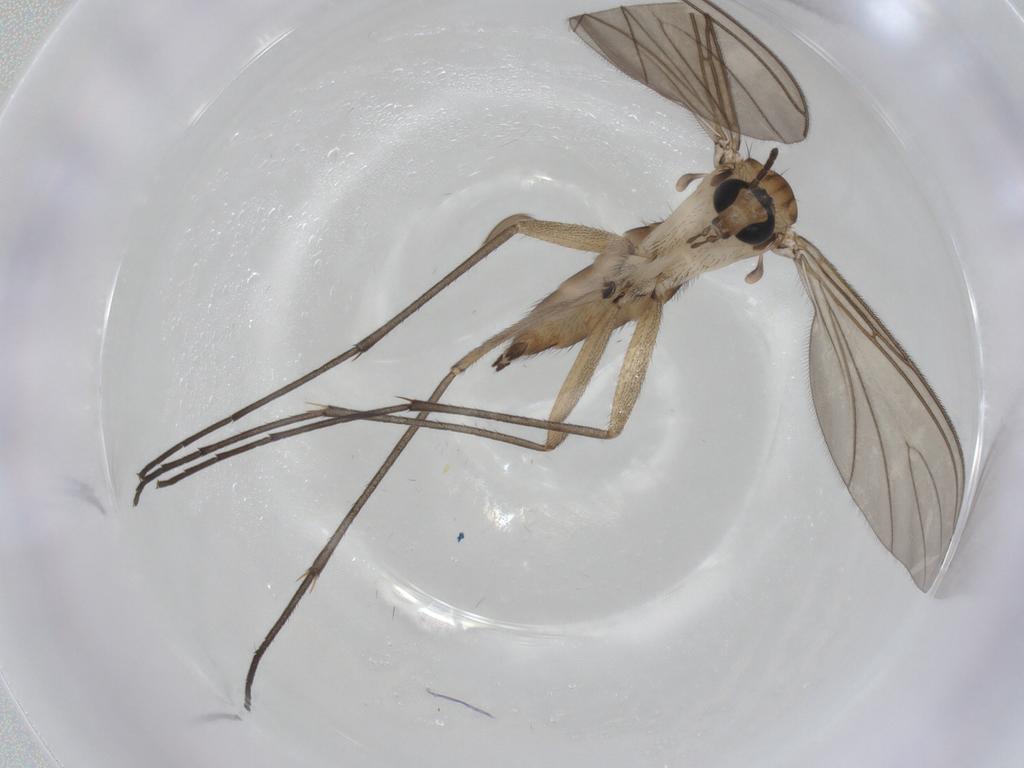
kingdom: Animalia
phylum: Arthropoda
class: Insecta
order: Diptera
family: Sciaridae
